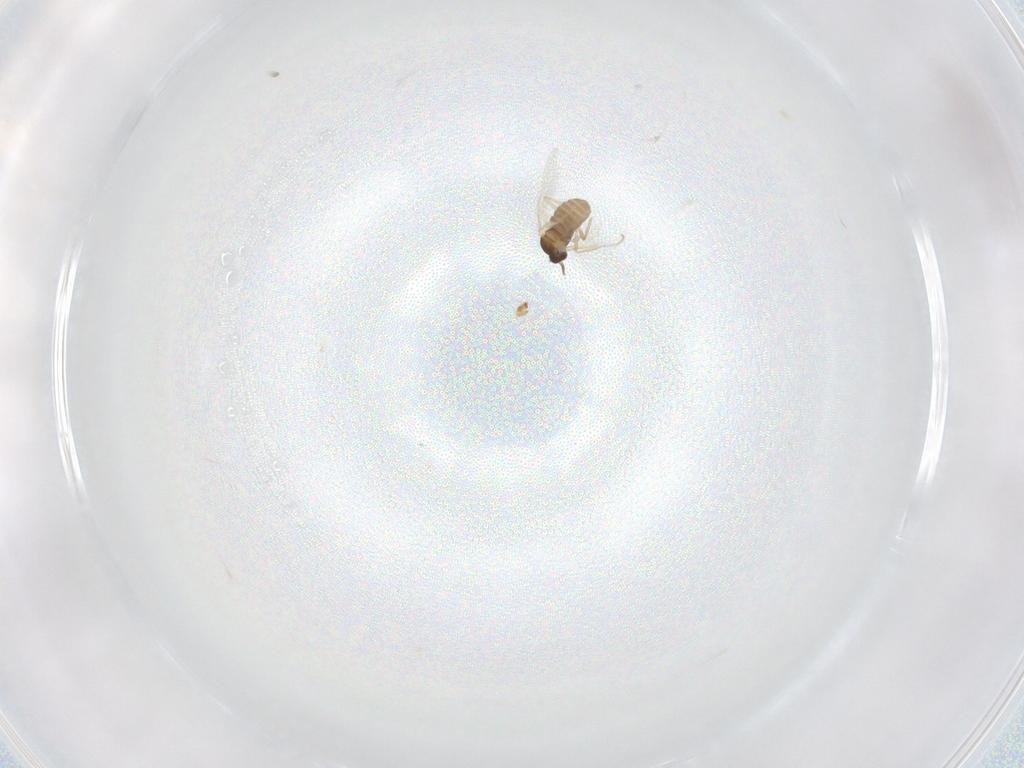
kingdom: Animalia
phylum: Arthropoda
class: Insecta
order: Diptera
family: Cecidomyiidae
